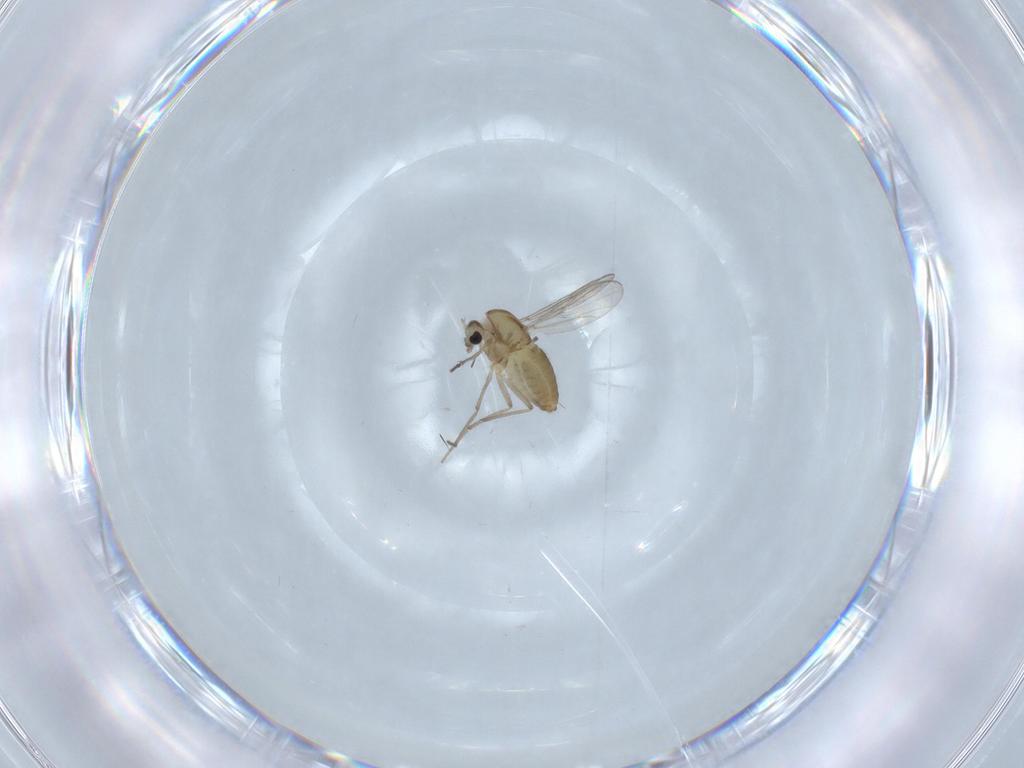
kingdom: Animalia
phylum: Arthropoda
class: Insecta
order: Diptera
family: Chironomidae
